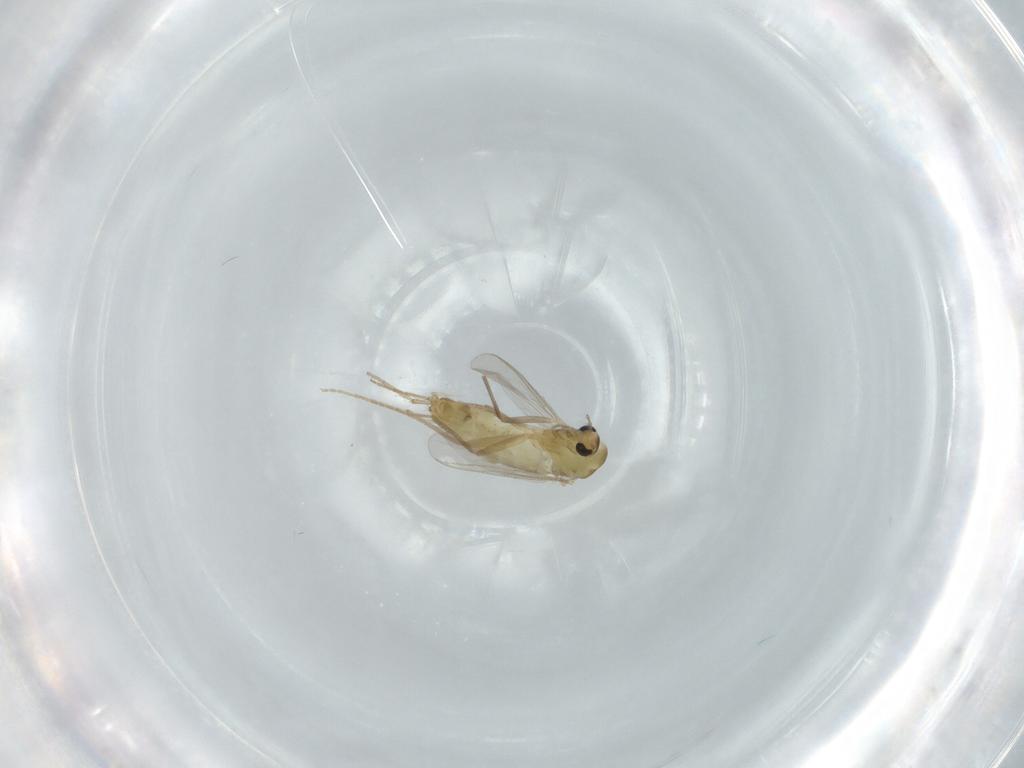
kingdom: Animalia
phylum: Arthropoda
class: Insecta
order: Diptera
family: Chironomidae
